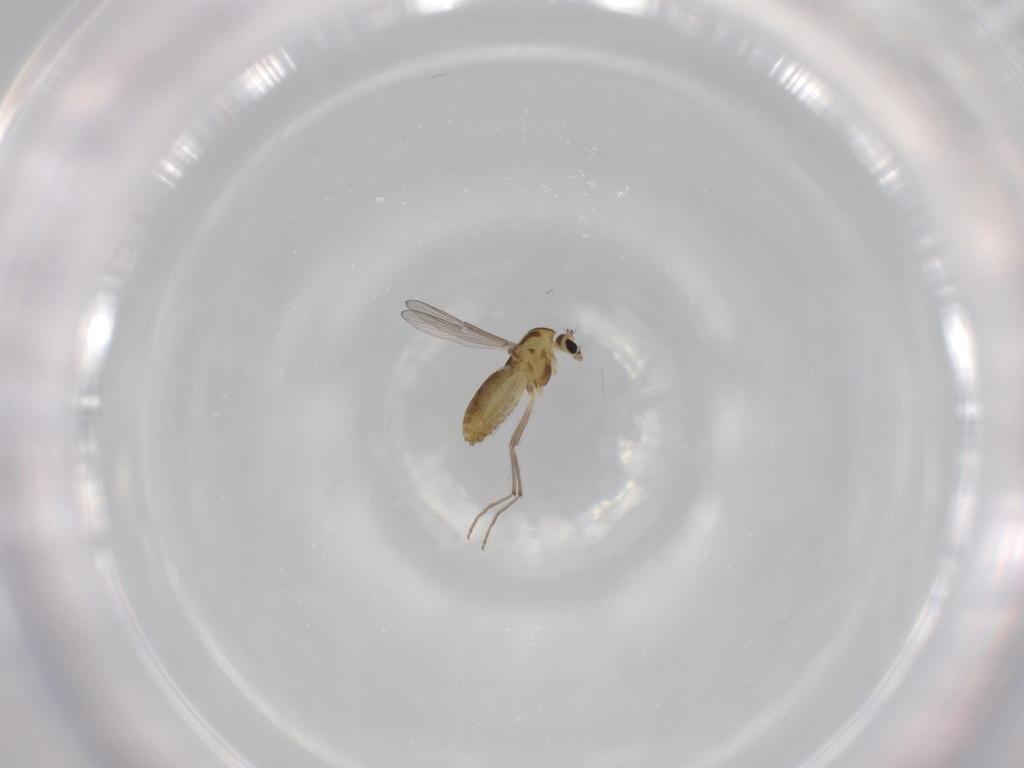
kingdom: Animalia
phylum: Arthropoda
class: Insecta
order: Diptera
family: Chironomidae
